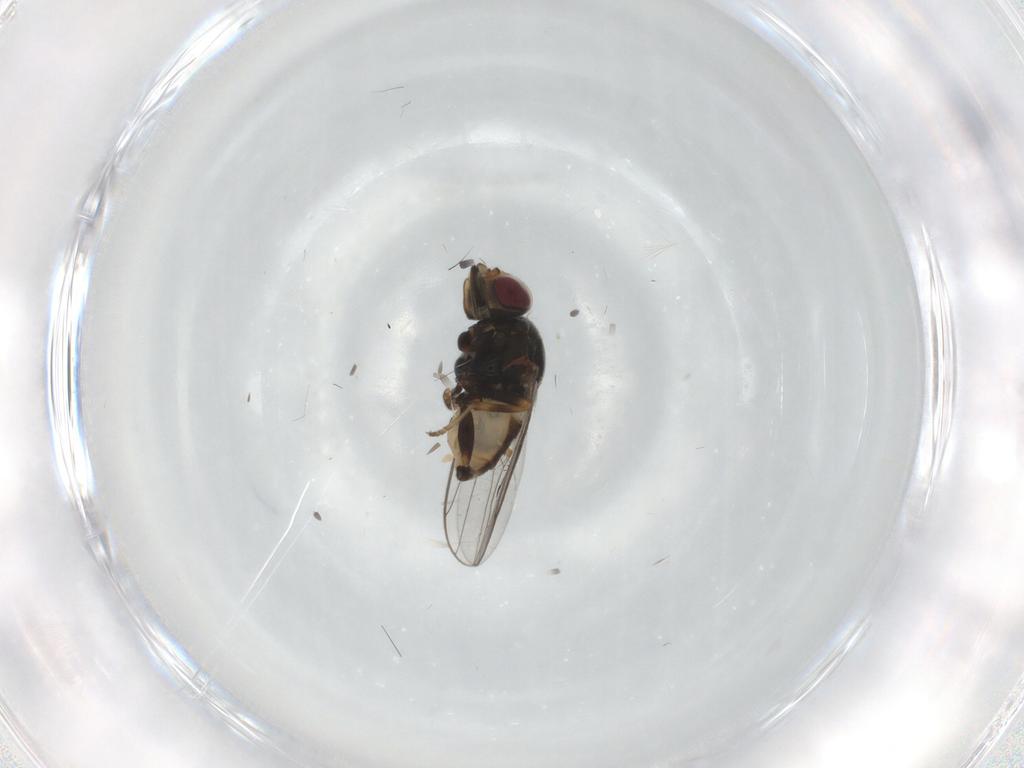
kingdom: Animalia
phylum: Arthropoda
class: Insecta
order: Diptera
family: Chloropidae
